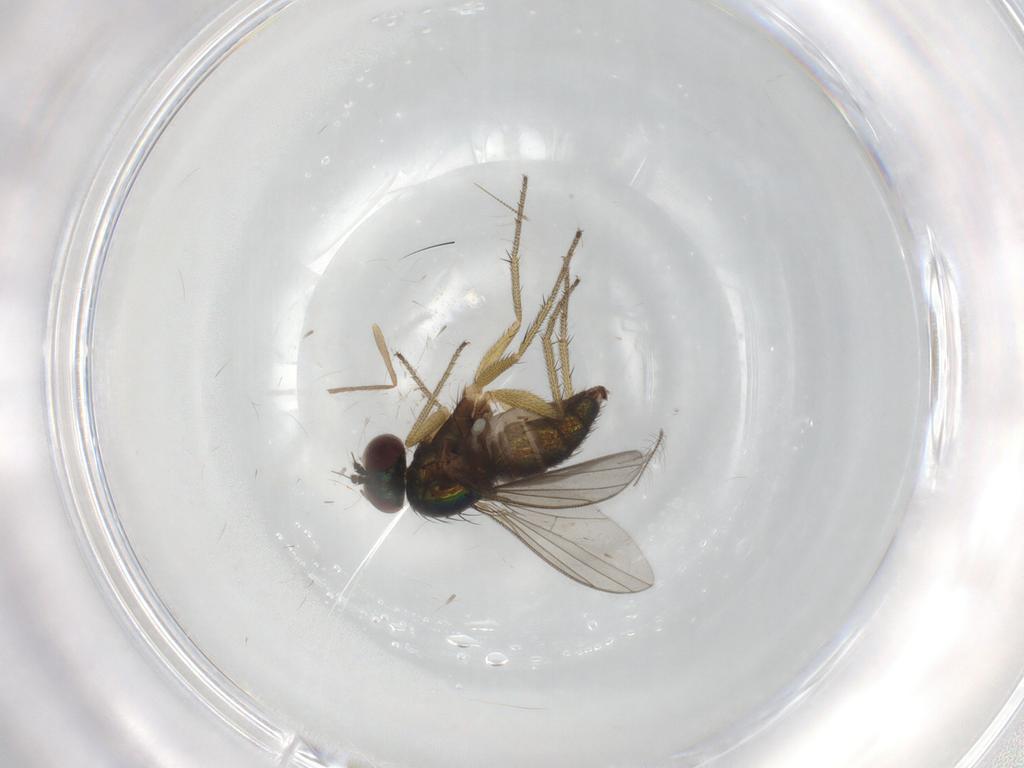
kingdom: Animalia
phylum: Arthropoda
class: Insecta
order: Diptera
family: Chironomidae
